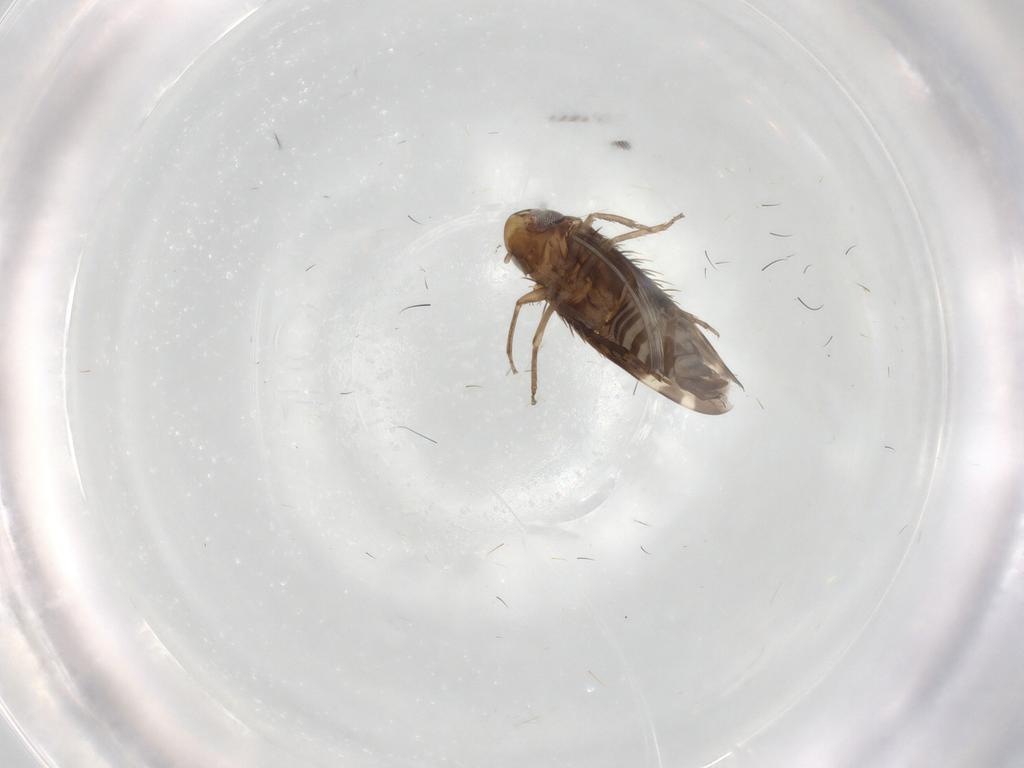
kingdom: Animalia
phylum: Arthropoda
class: Insecta
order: Hemiptera
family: Cicadellidae
